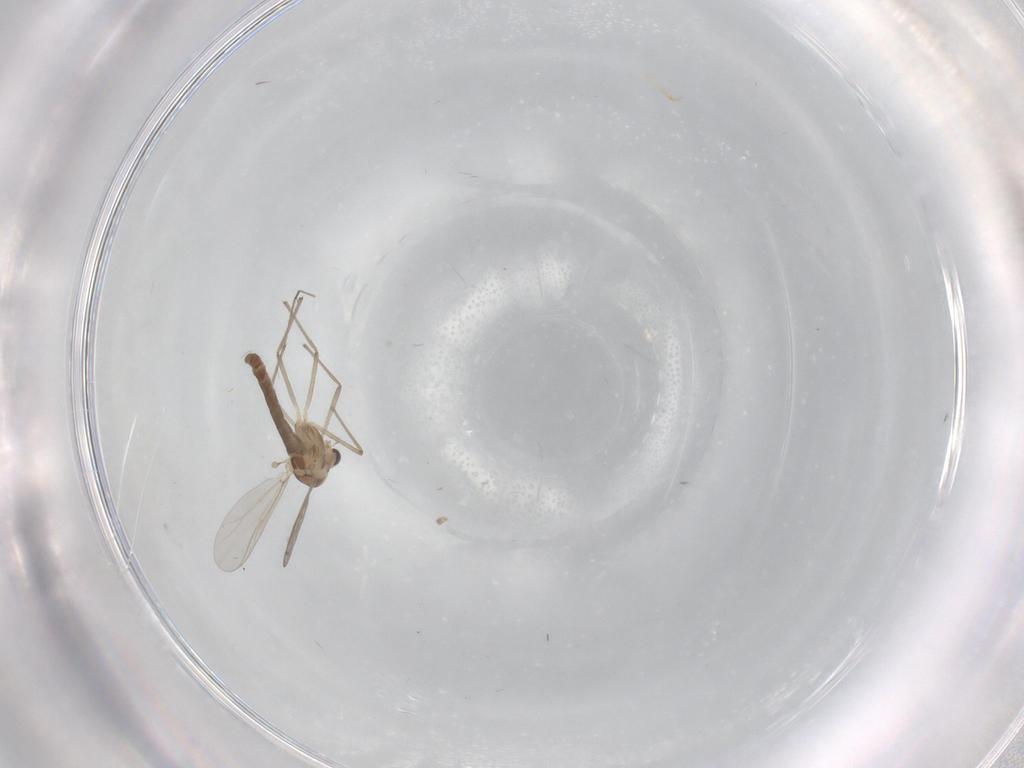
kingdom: Animalia
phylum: Arthropoda
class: Insecta
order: Diptera
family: Chironomidae
